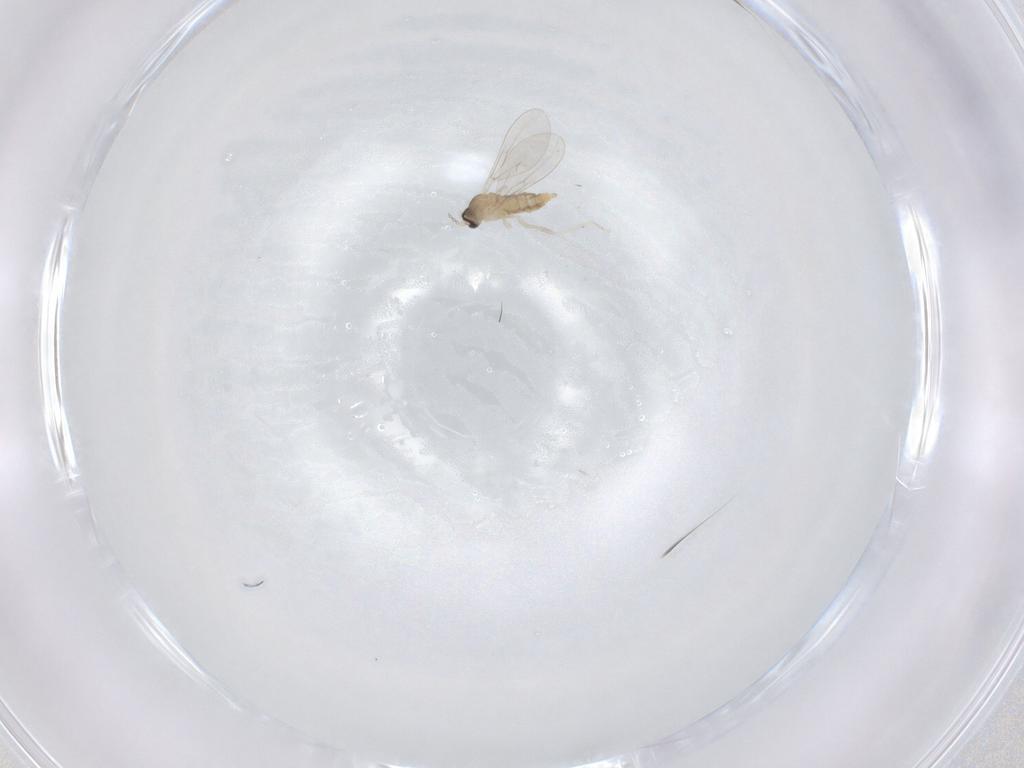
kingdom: Animalia
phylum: Arthropoda
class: Insecta
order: Diptera
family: Cecidomyiidae
